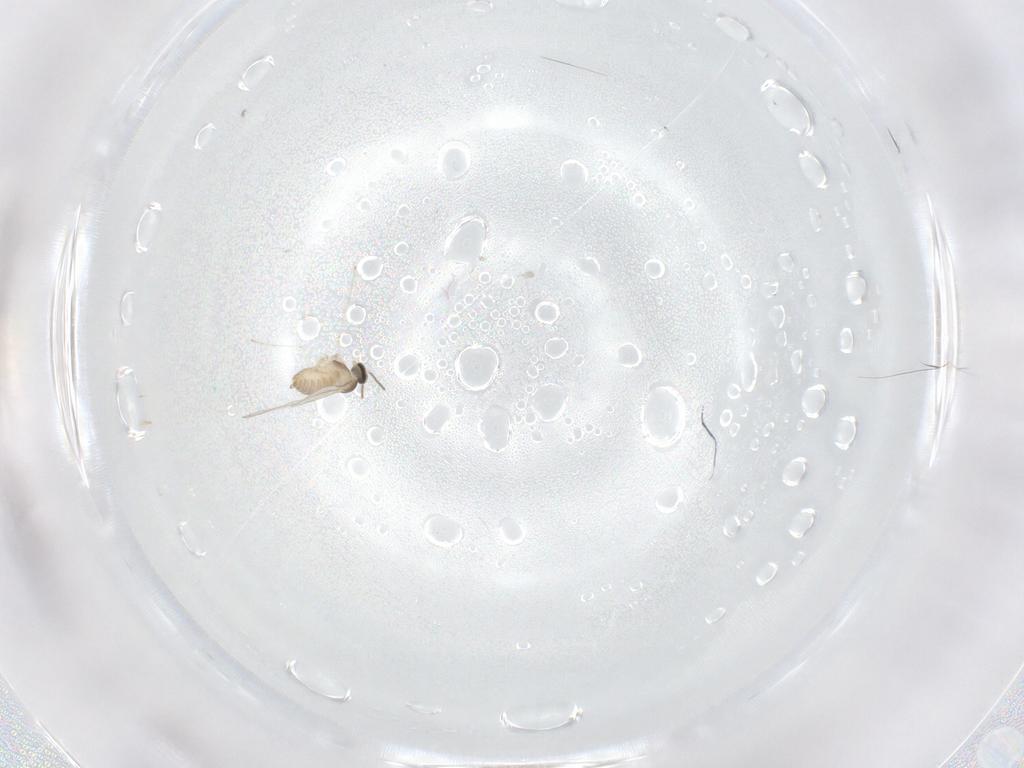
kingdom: Animalia
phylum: Arthropoda
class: Insecta
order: Diptera
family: Cecidomyiidae
